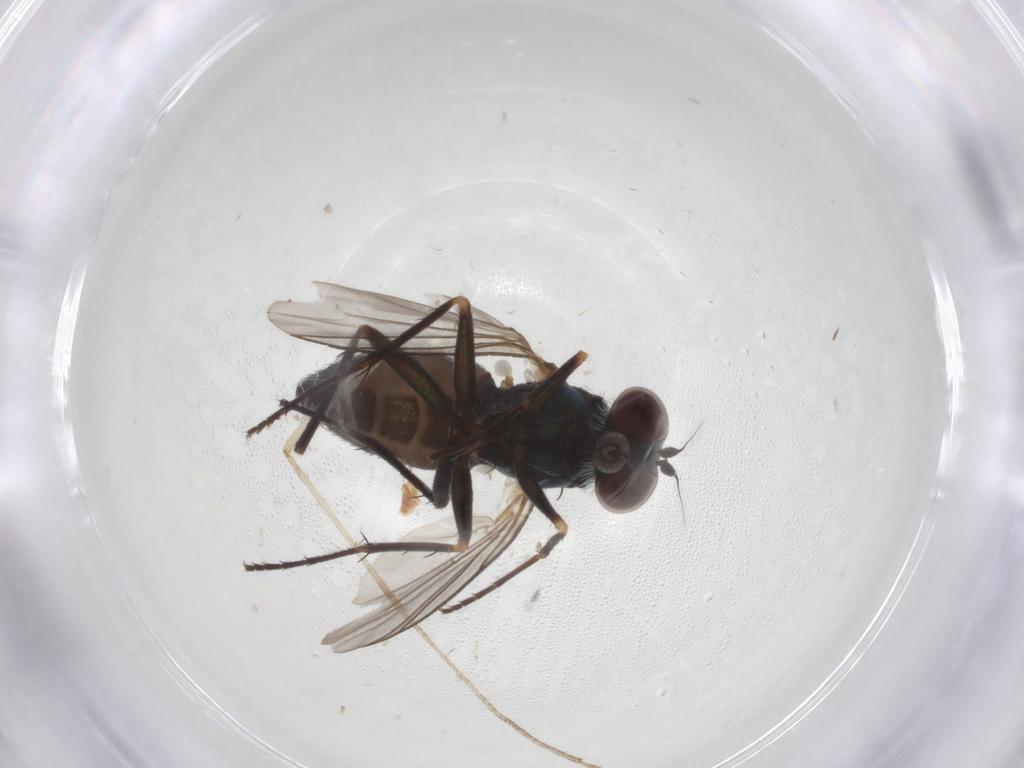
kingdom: Animalia
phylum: Arthropoda
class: Insecta
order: Diptera
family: Dolichopodidae
